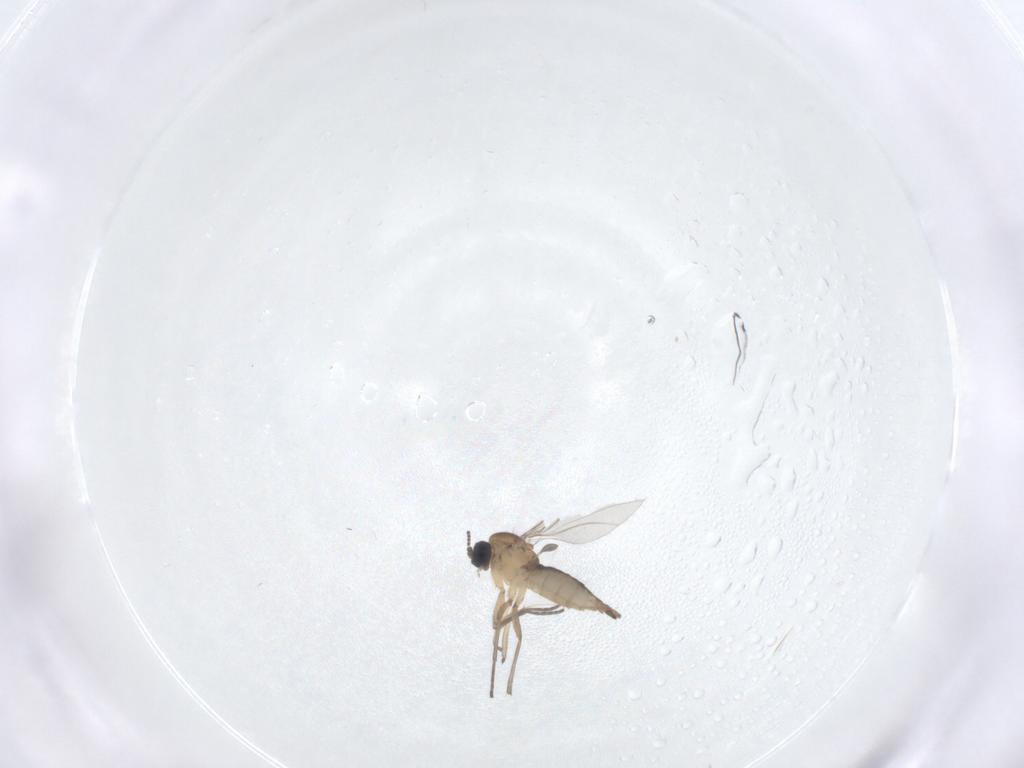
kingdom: Animalia
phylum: Arthropoda
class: Insecta
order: Diptera
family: Sciaridae
